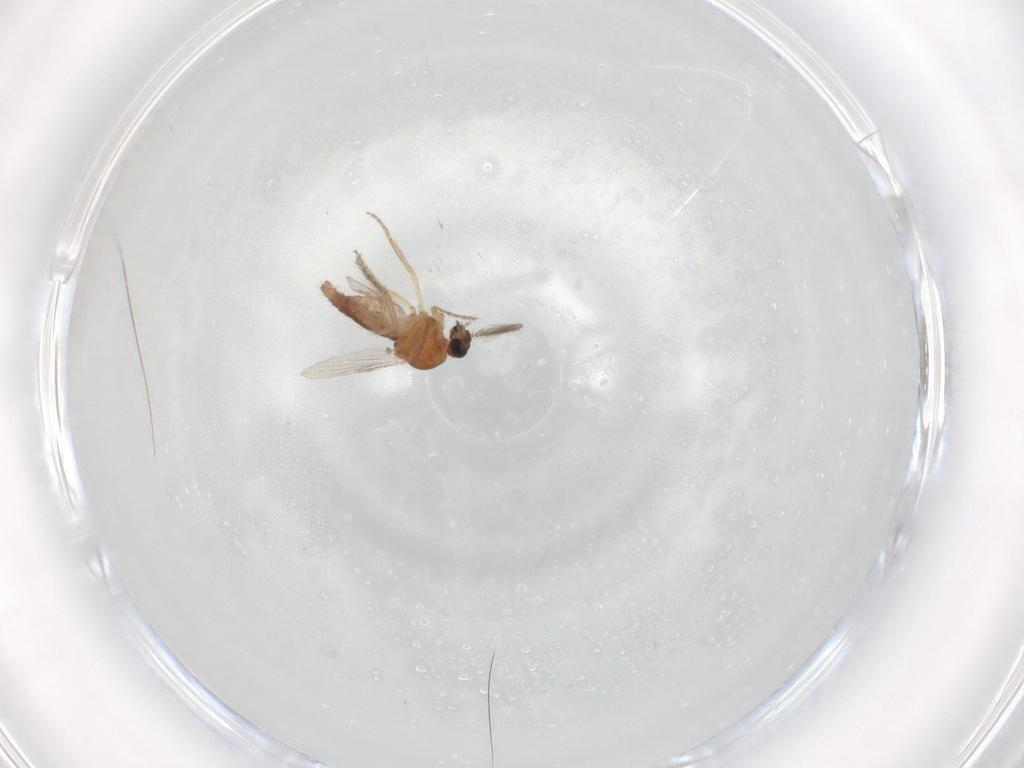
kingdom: Animalia
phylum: Arthropoda
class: Insecta
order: Diptera
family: Ceratopogonidae
